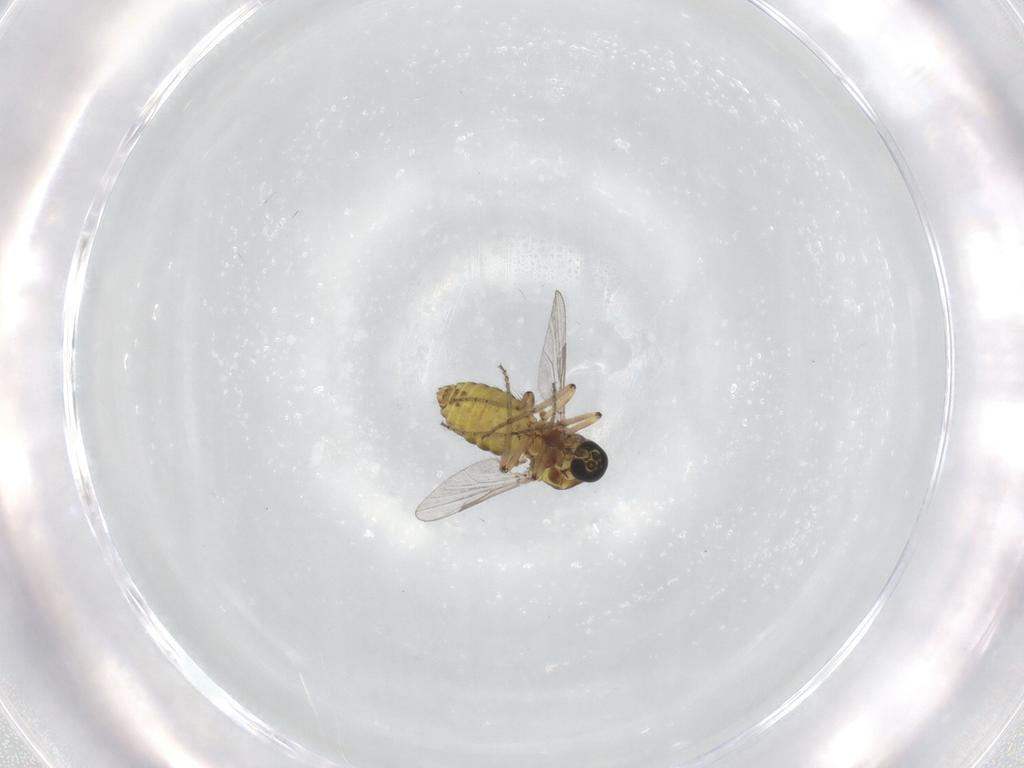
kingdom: Animalia
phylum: Arthropoda
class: Insecta
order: Diptera
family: Ceratopogonidae
